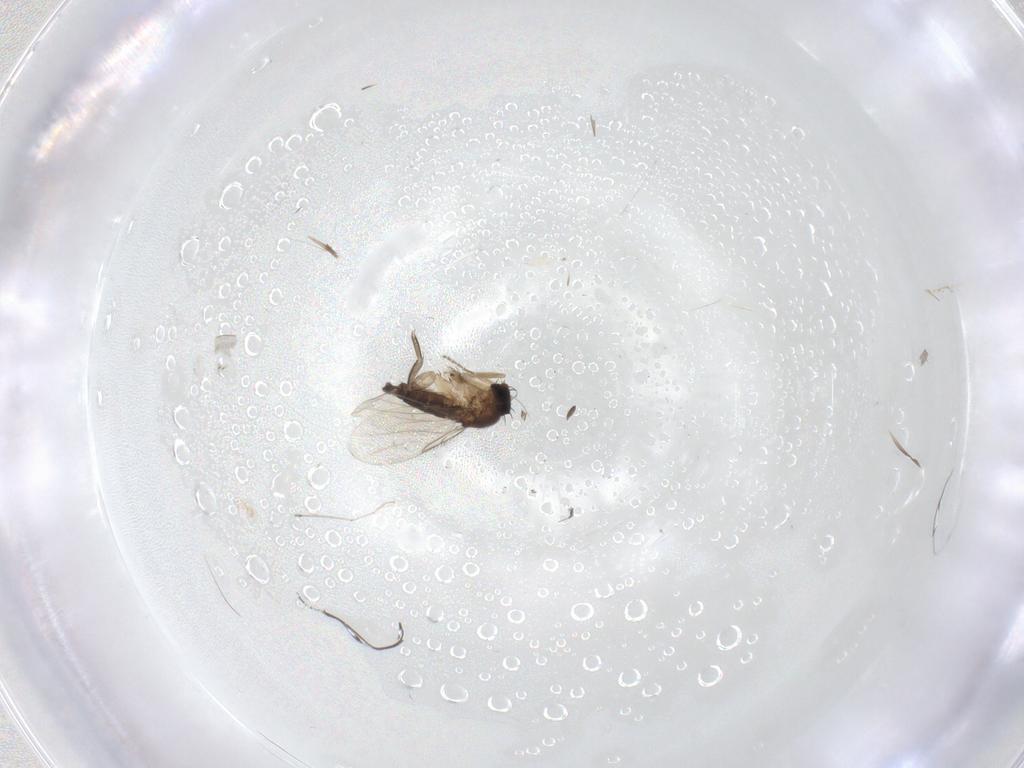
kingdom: Animalia
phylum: Arthropoda
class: Insecta
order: Diptera
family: Phoridae
